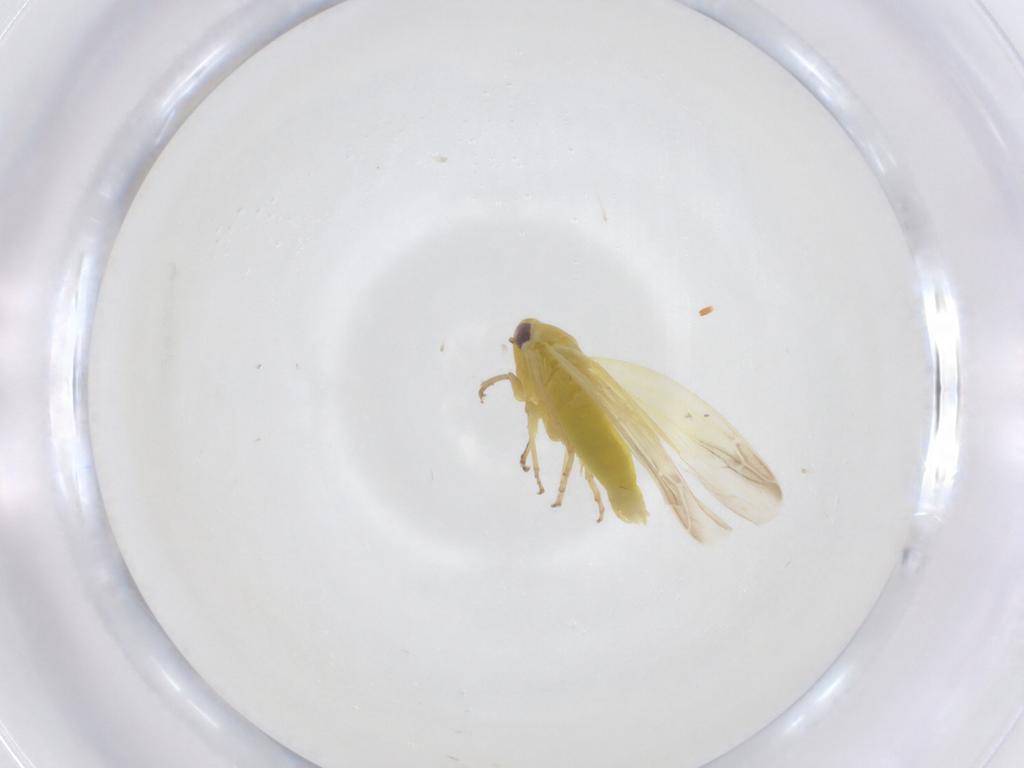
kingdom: Animalia
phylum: Arthropoda
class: Insecta
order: Hemiptera
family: Cicadellidae
